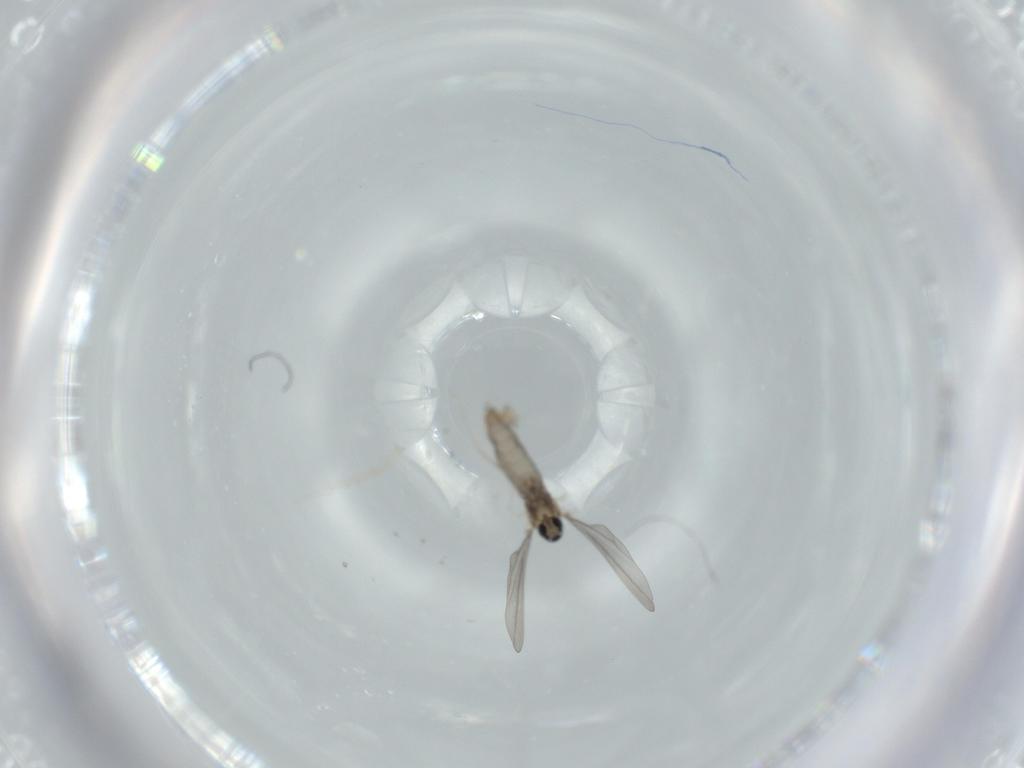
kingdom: Animalia
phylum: Arthropoda
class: Insecta
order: Diptera
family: Cecidomyiidae
